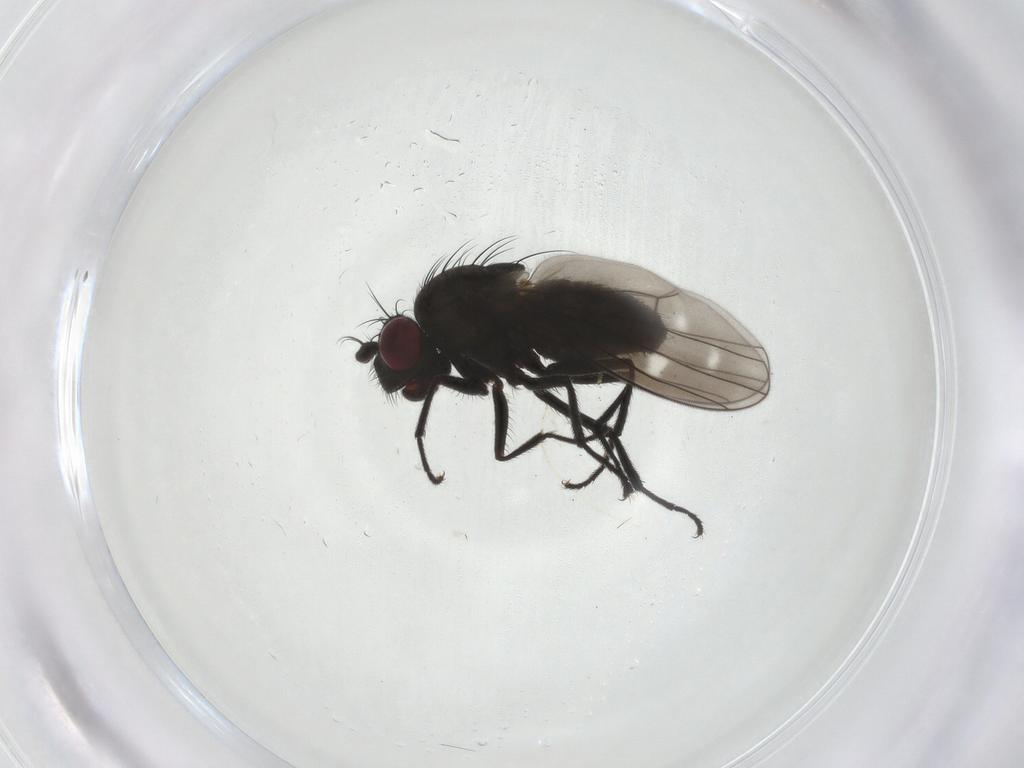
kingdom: Animalia
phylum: Arthropoda
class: Insecta
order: Diptera
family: Ephydridae
